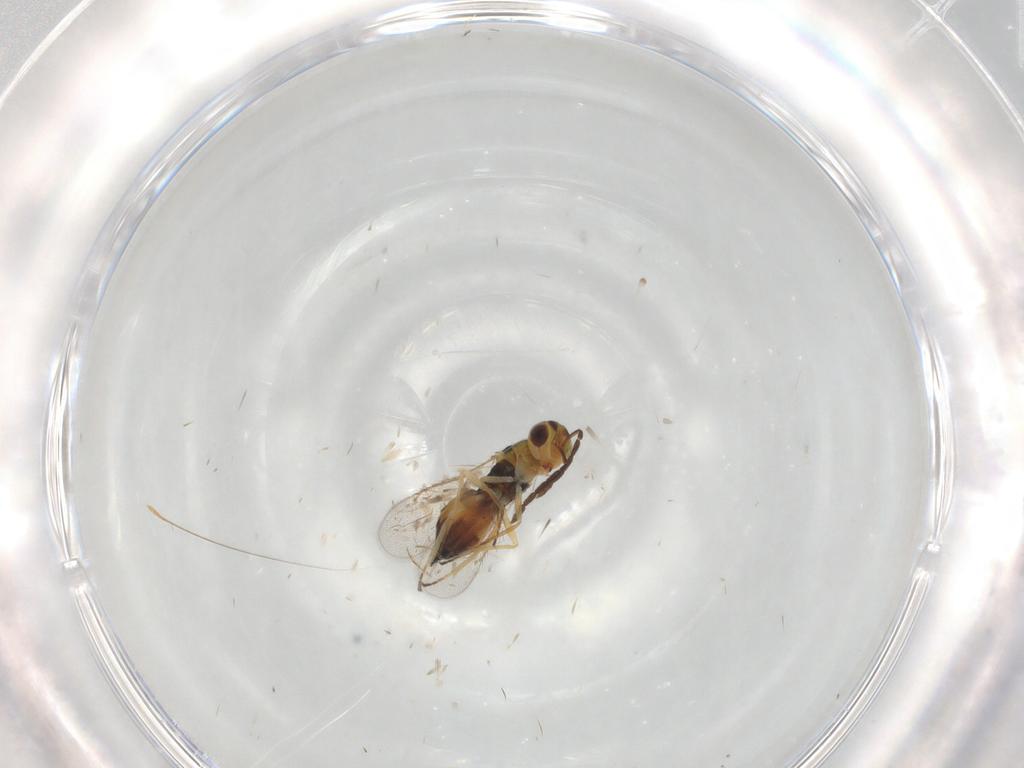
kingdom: Animalia
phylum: Arthropoda
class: Insecta
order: Hymenoptera
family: Eulophidae
